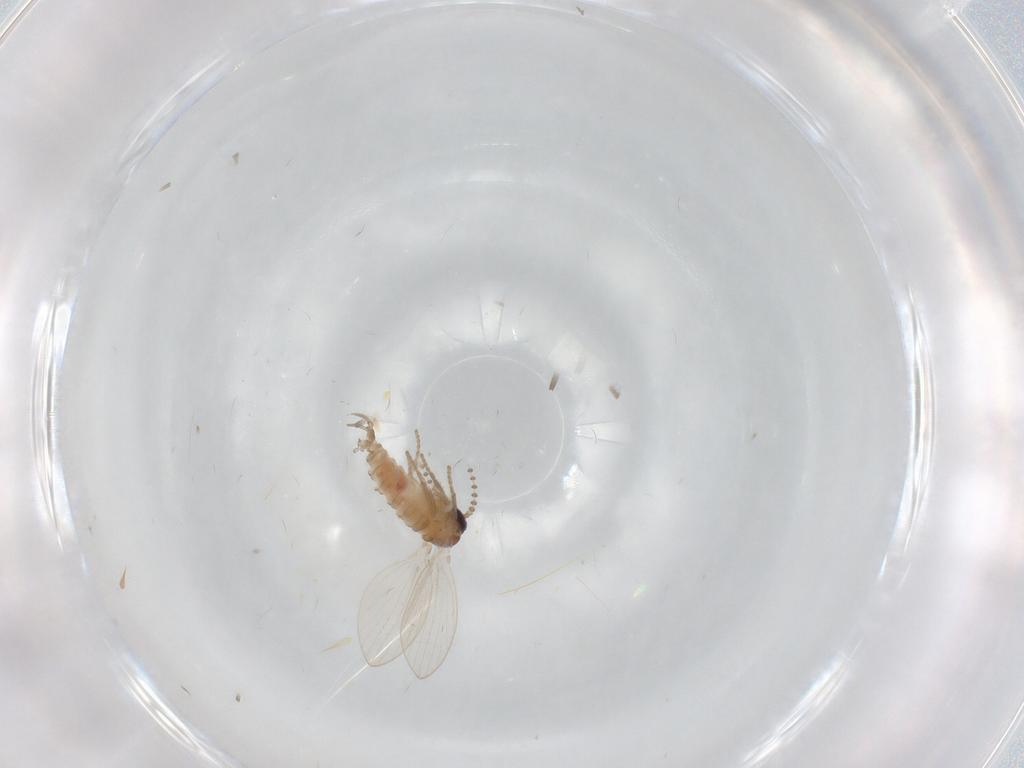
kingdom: Animalia
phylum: Arthropoda
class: Insecta
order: Diptera
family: Psychodidae
